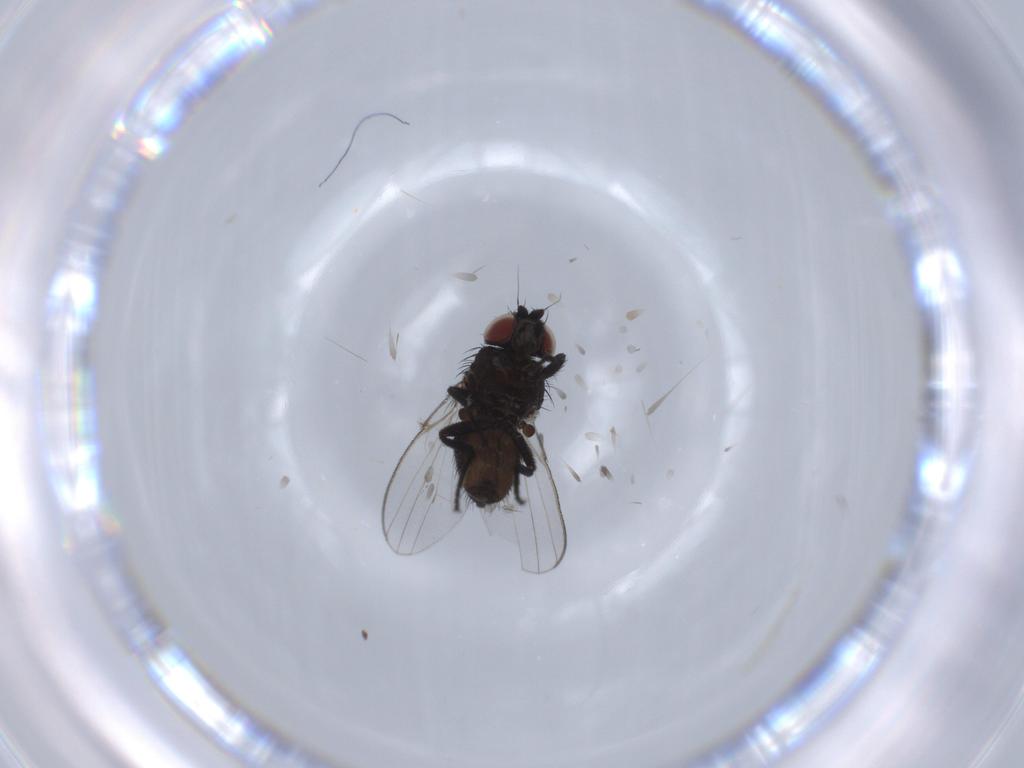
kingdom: Animalia
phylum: Arthropoda
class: Insecta
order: Diptera
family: Milichiidae
